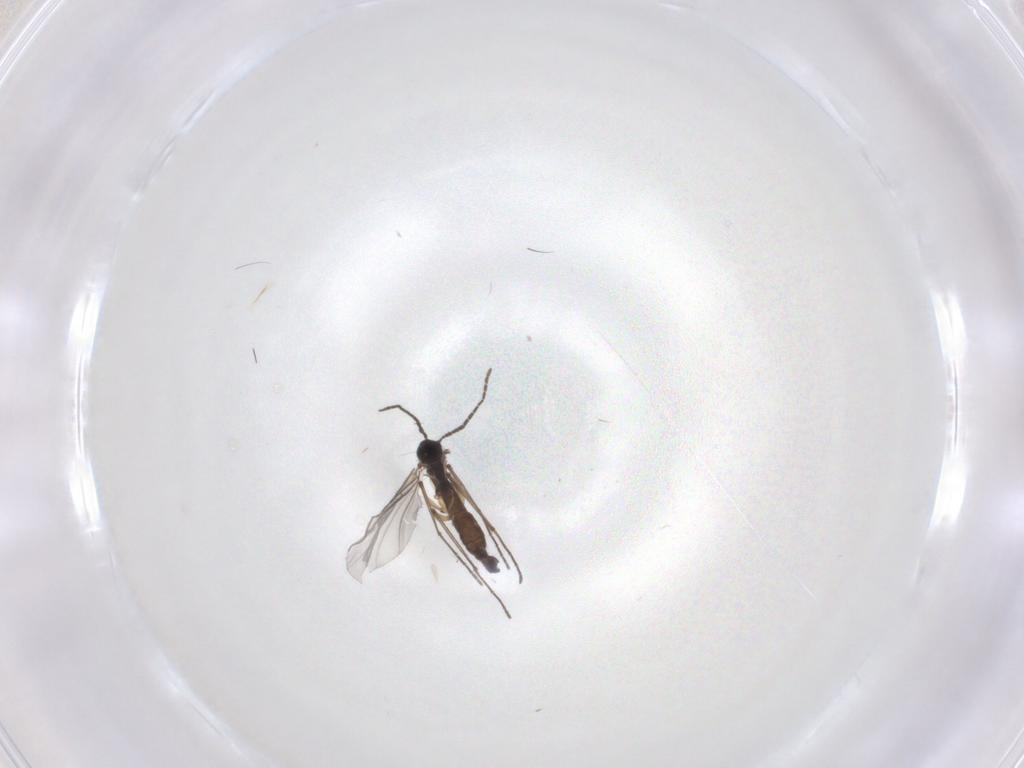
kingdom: Animalia
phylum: Arthropoda
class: Insecta
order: Diptera
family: Sciaridae
